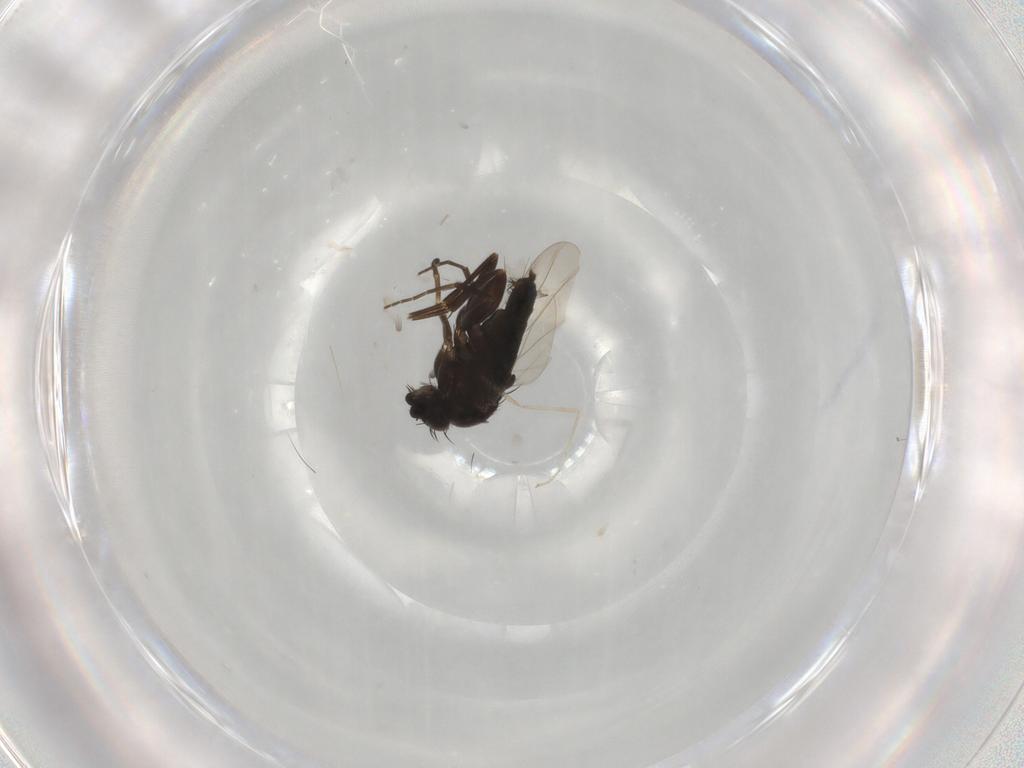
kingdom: Animalia
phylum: Arthropoda
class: Insecta
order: Diptera
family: Phoridae
